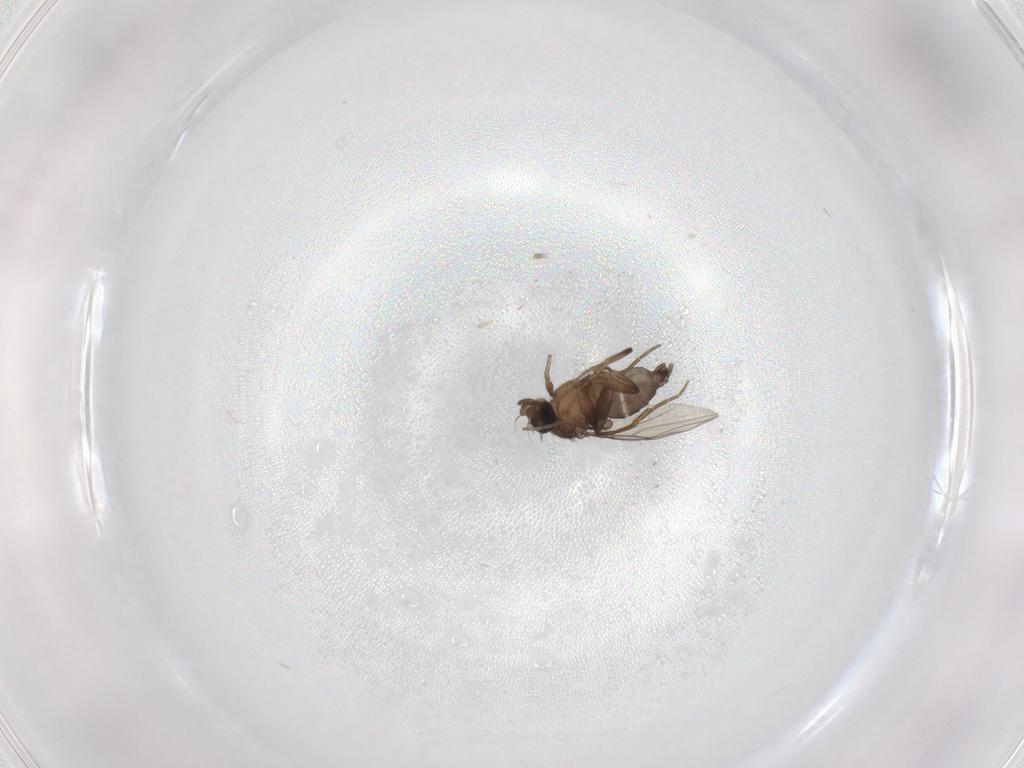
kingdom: Animalia
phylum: Arthropoda
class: Insecta
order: Diptera
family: Phoridae
